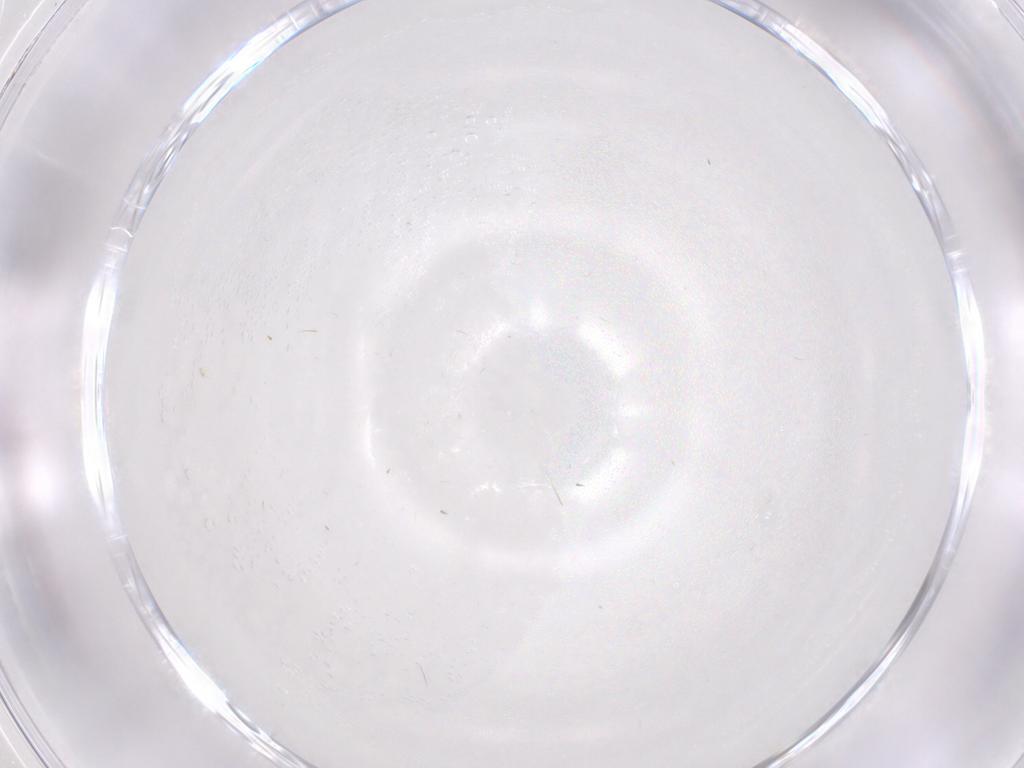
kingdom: Animalia
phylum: Arthropoda
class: Insecta
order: Diptera
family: Psychodidae
